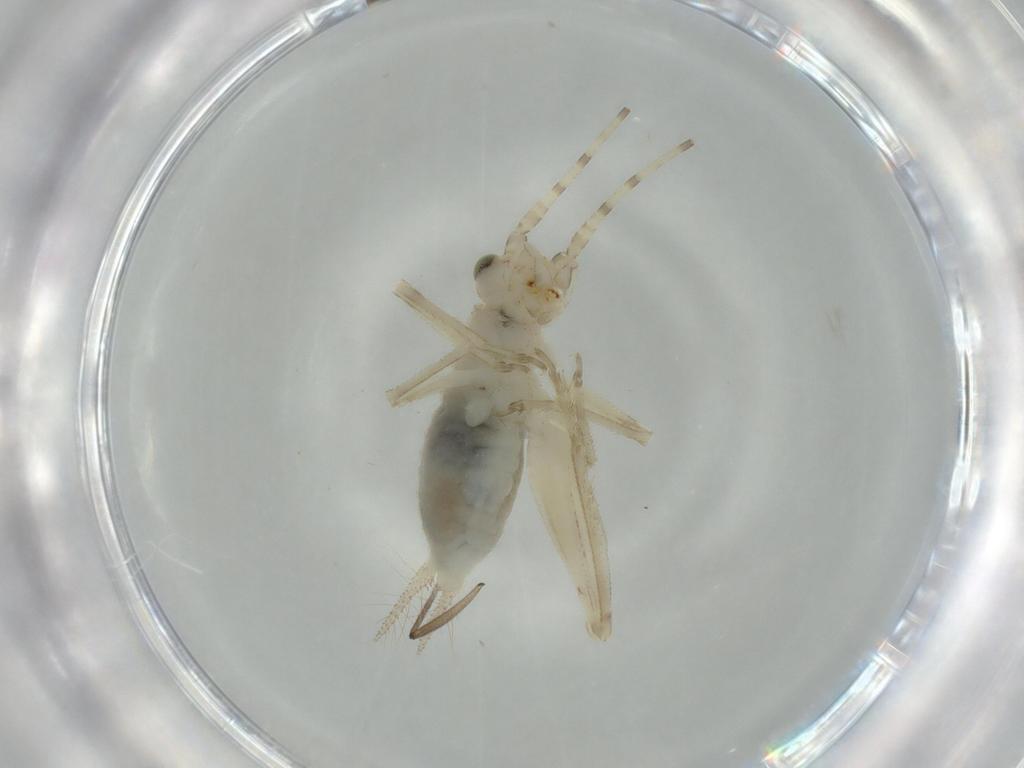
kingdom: Animalia
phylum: Arthropoda
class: Insecta
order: Orthoptera
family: Trigonidiidae
